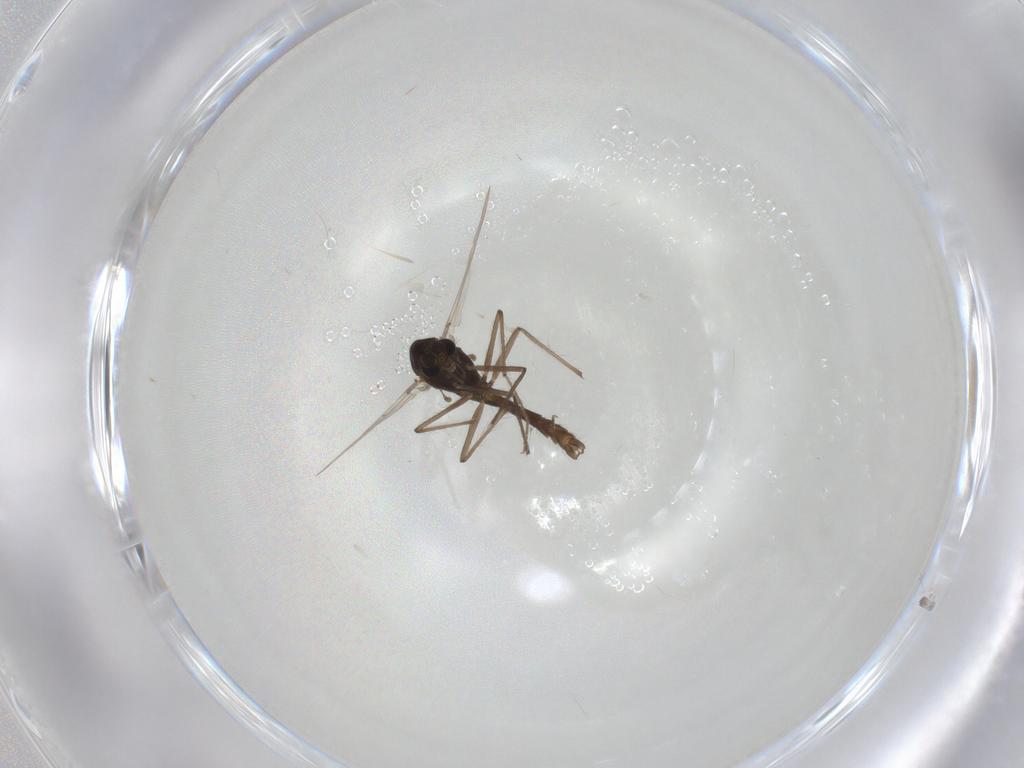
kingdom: Animalia
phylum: Arthropoda
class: Insecta
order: Diptera
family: Chironomidae
